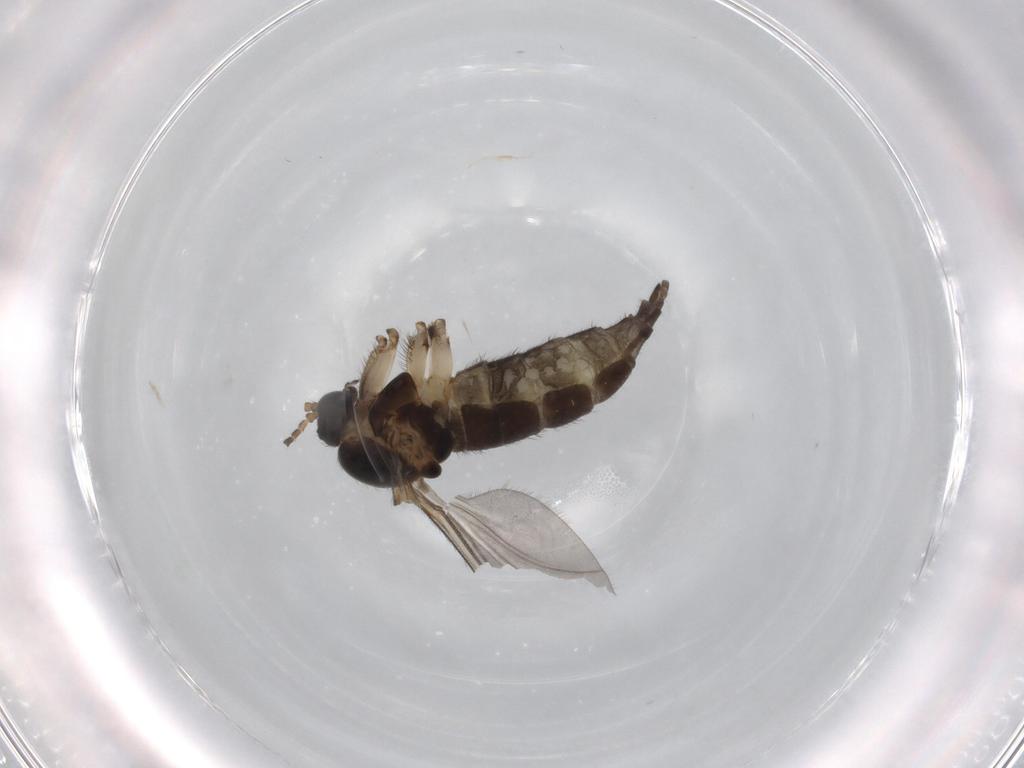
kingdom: Animalia
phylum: Arthropoda
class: Insecta
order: Diptera
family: Sciaridae
